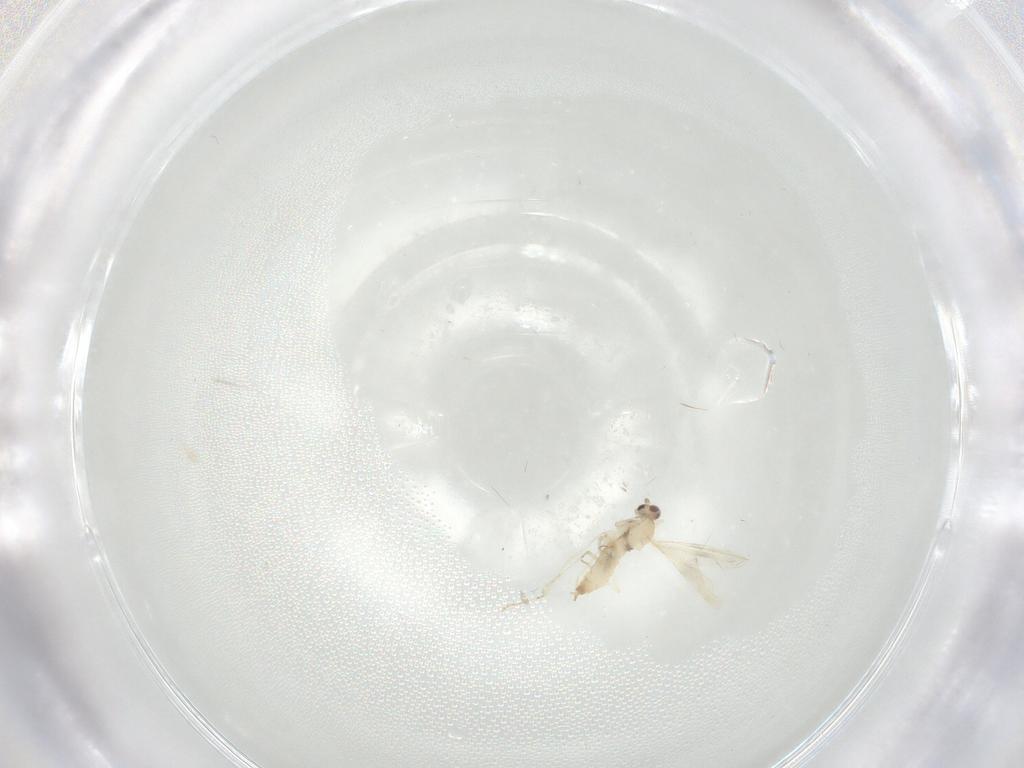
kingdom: Animalia
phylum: Arthropoda
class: Insecta
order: Diptera
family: Cecidomyiidae
